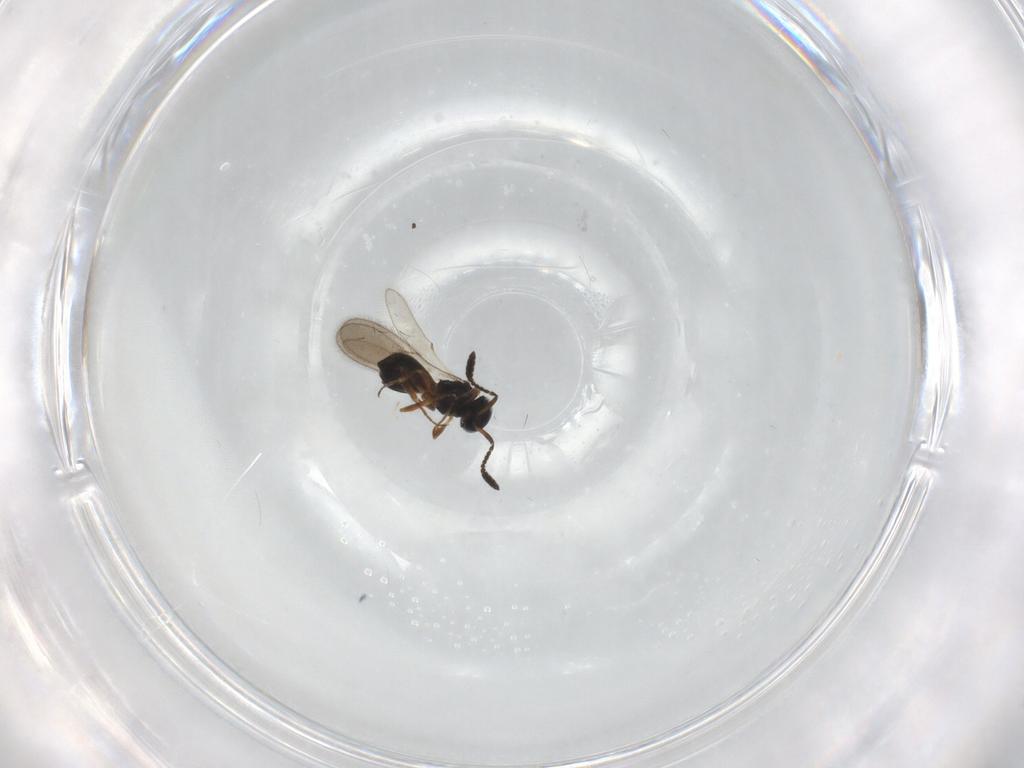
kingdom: Animalia
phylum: Arthropoda
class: Insecta
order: Hymenoptera
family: Scelionidae
